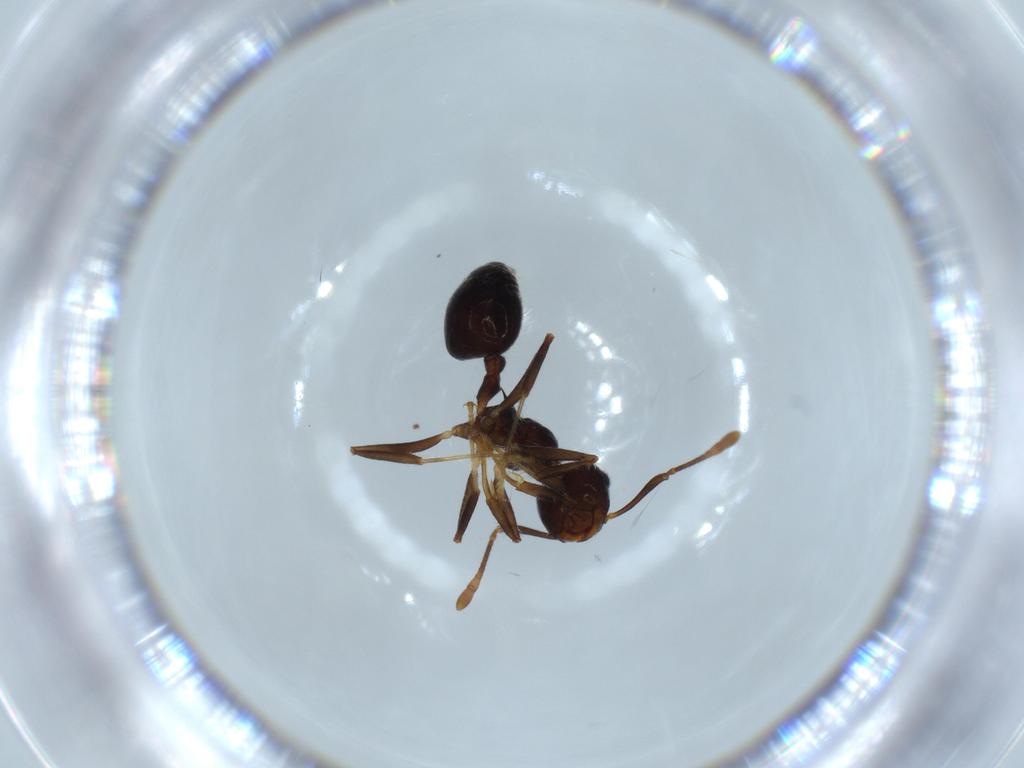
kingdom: Animalia
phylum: Arthropoda
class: Insecta
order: Hymenoptera
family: Formicidae
